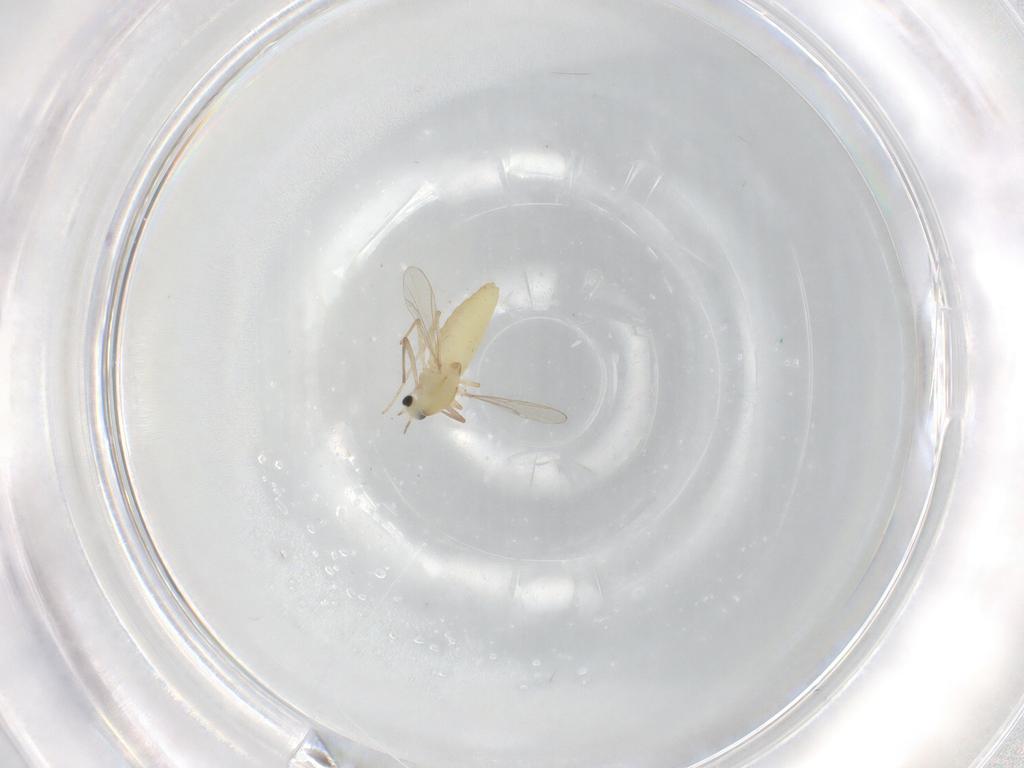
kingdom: Animalia
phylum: Arthropoda
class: Insecta
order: Diptera
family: Chironomidae
